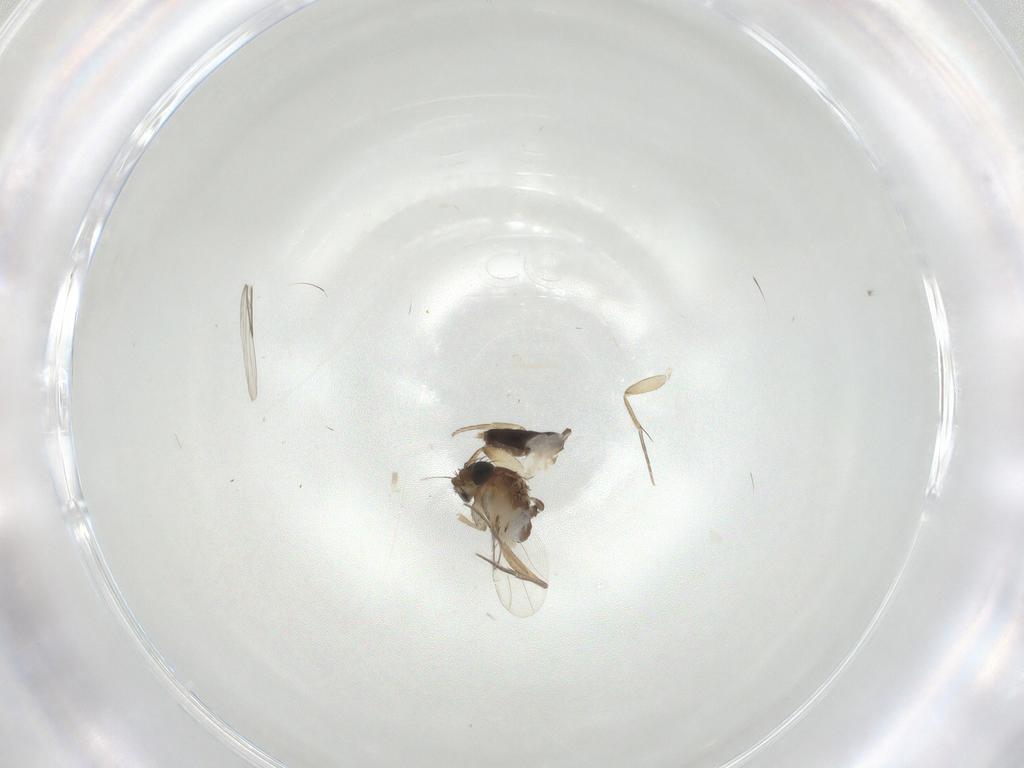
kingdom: Animalia
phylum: Arthropoda
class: Insecta
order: Diptera
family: Phoridae
